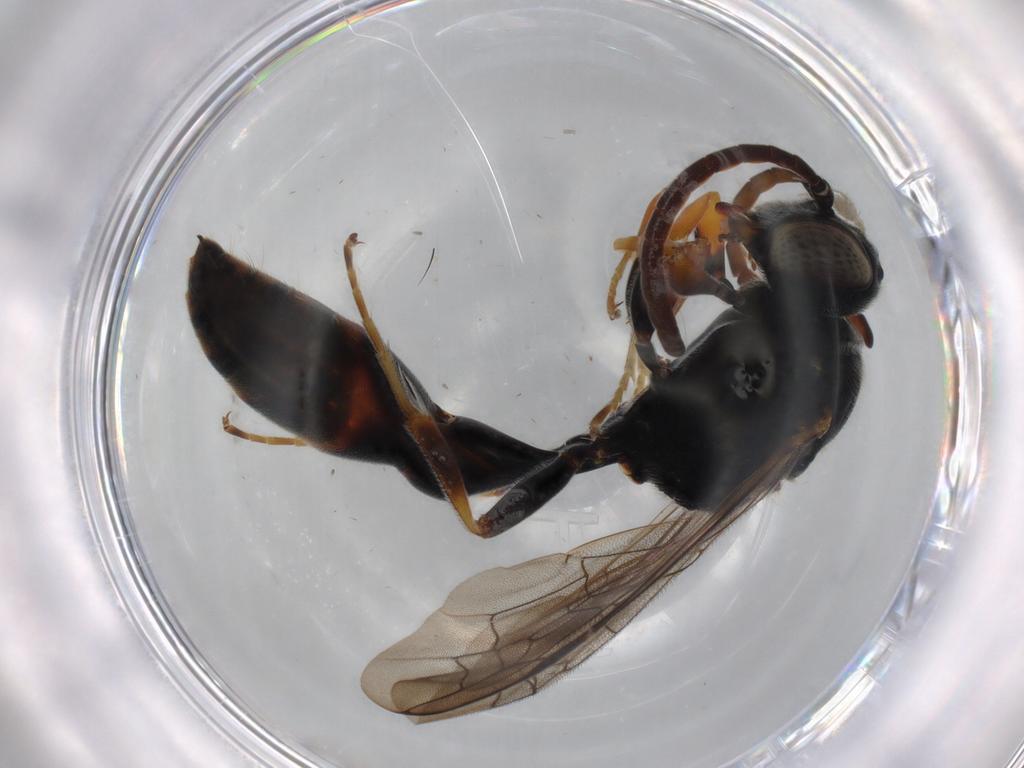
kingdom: Animalia
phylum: Arthropoda
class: Insecta
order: Hymenoptera
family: Psenidae
